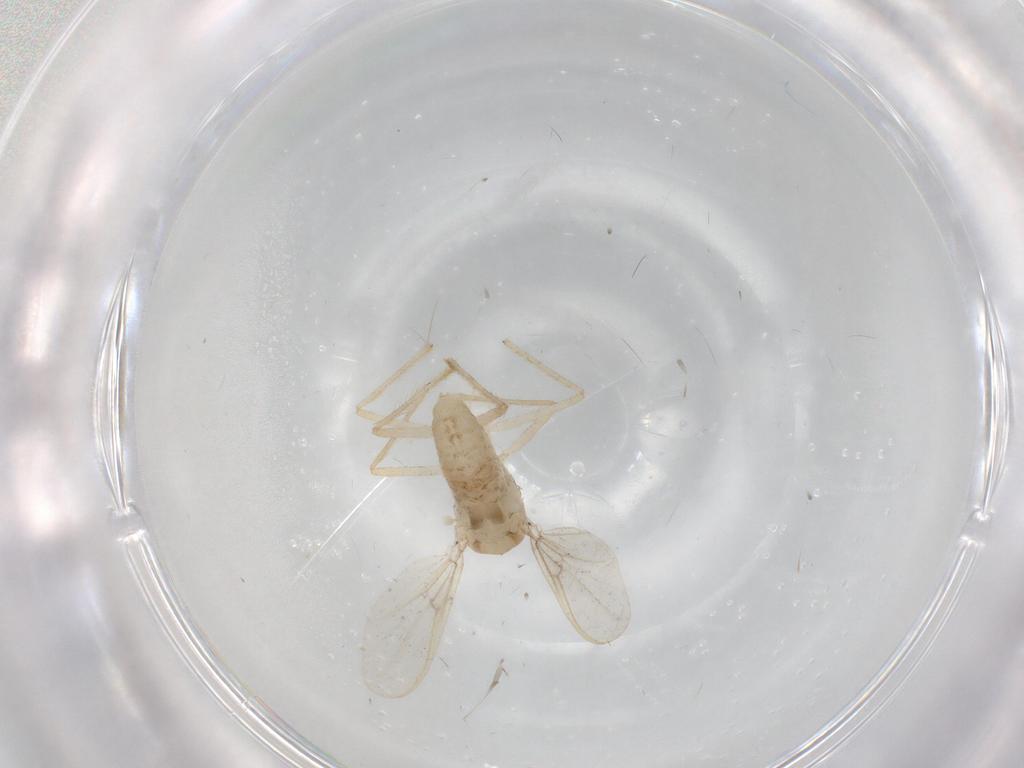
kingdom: Animalia
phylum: Arthropoda
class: Insecta
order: Diptera
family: Chironomidae
